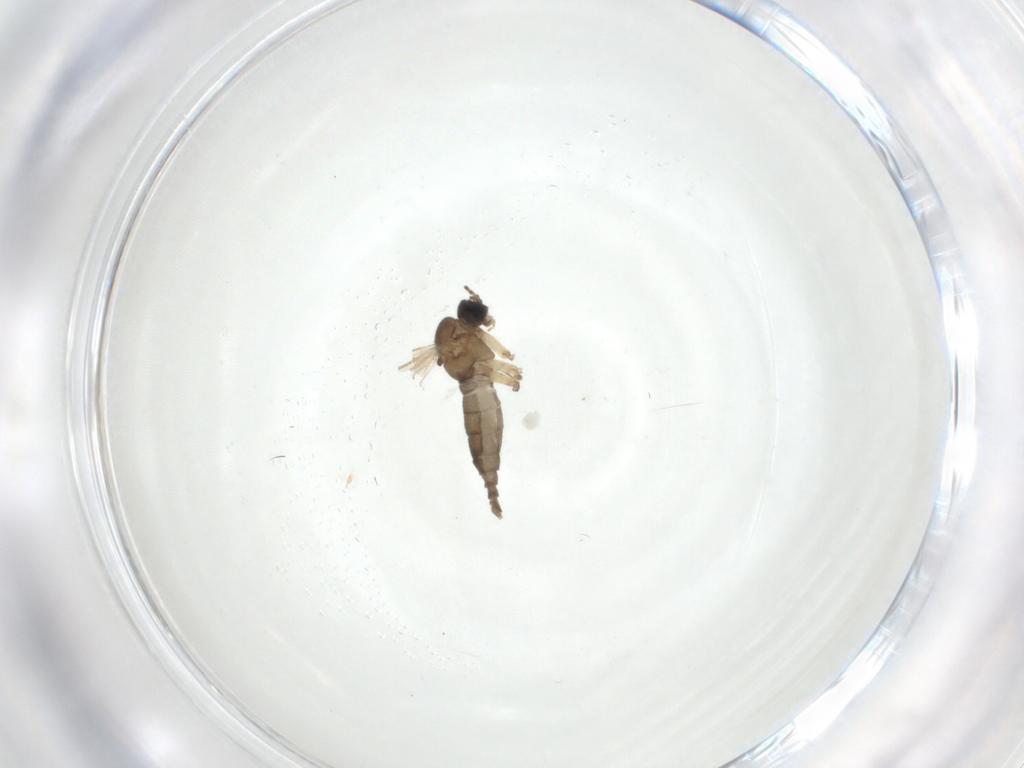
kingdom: Animalia
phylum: Arthropoda
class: Insecta
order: Diptera
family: Sciaridae
